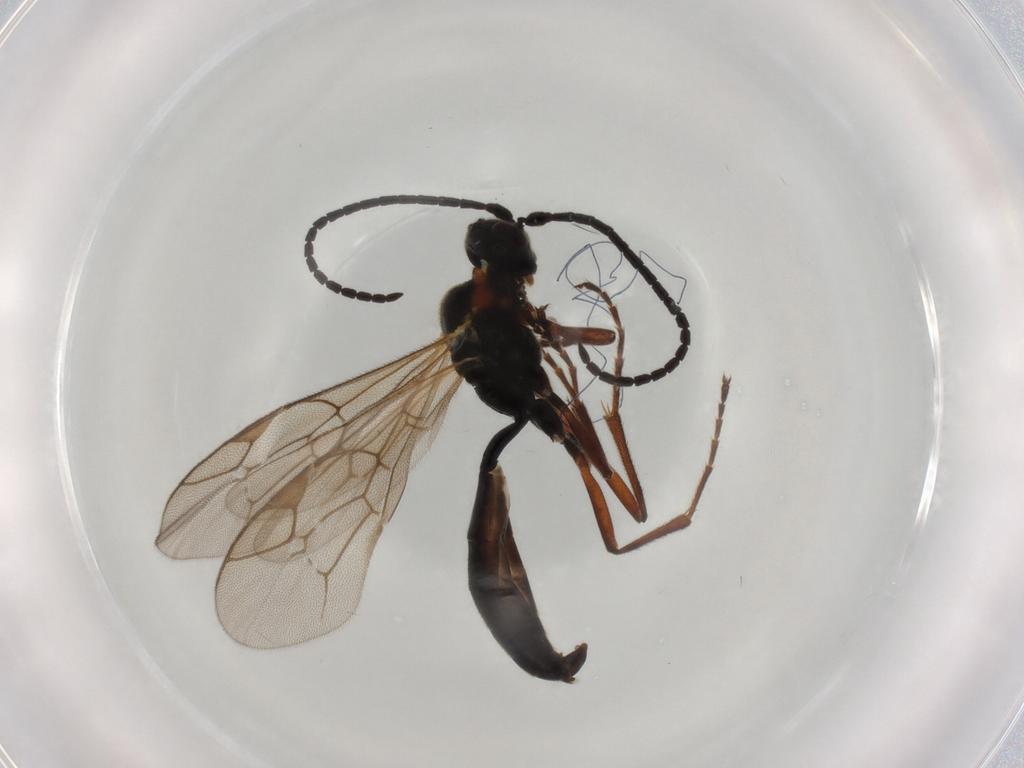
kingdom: Animalia
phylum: Arthropoda
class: Insecta
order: Hymenoptera
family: Ichneumonidae
